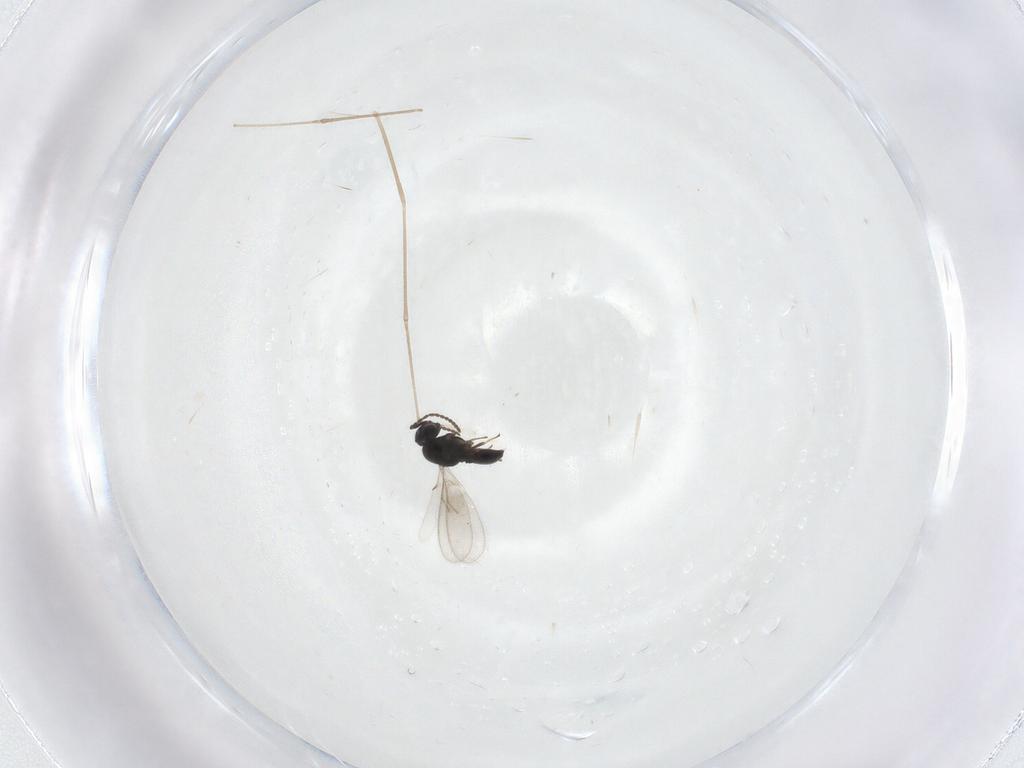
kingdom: Animalia
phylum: Arthropoda
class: Insecta
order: Hymenoptera
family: Scelionidae
